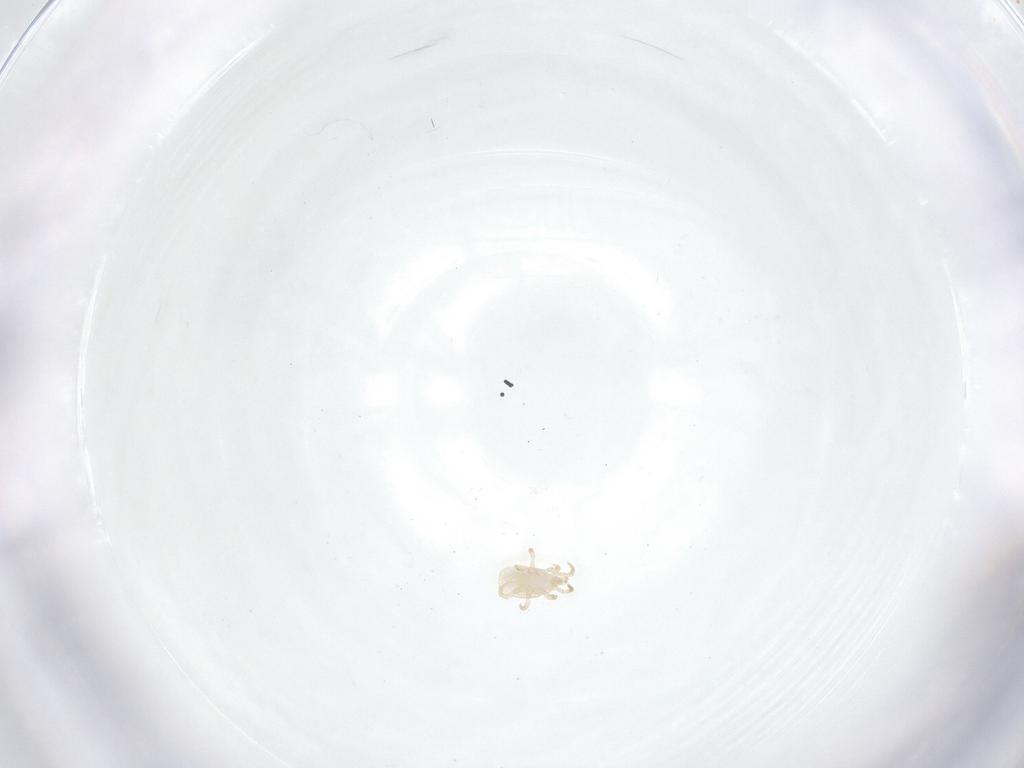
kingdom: Animalia
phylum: Arthropoda
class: Arachnida
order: Mesostigmata
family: Laelapidae
